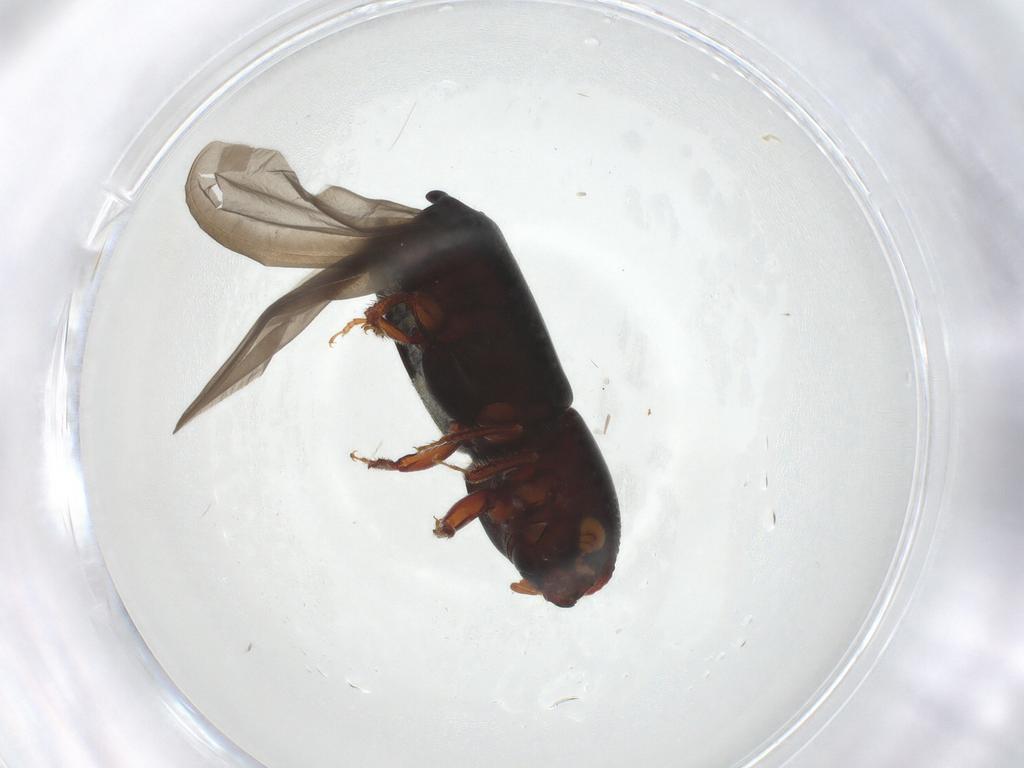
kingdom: Animalia
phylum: Arthropoda
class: Insecta
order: Coleoptera
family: Curculionidae
